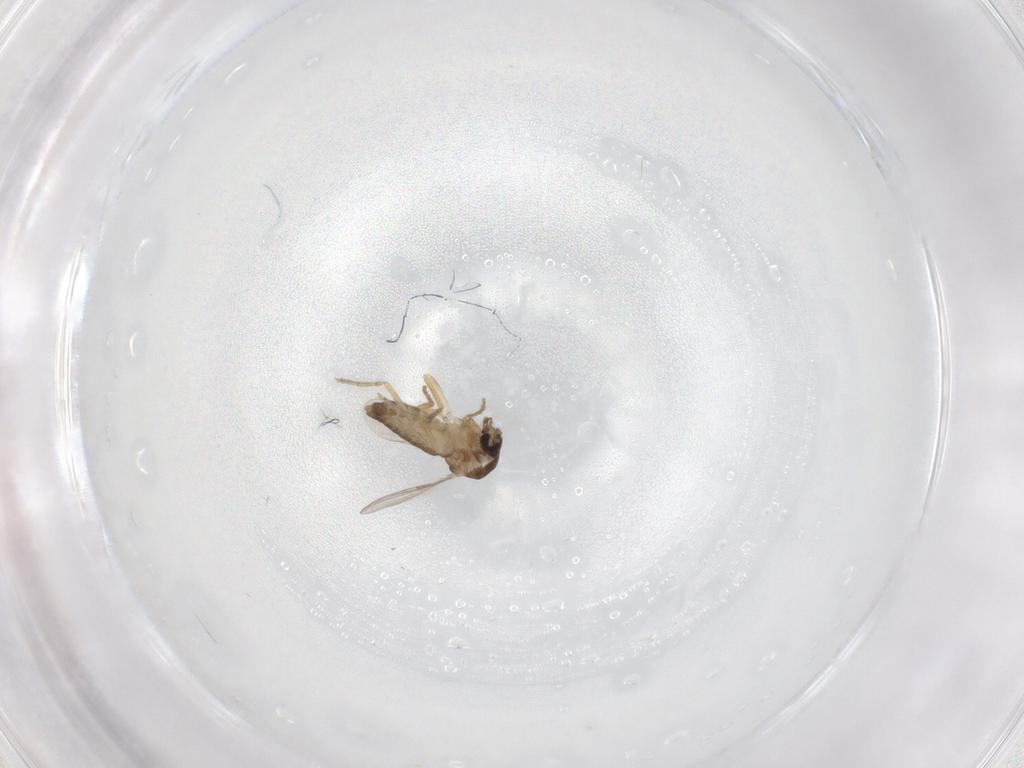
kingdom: Animalia
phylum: Arthropoda
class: Insecta
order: Diptera
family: Ceratopogonidae
